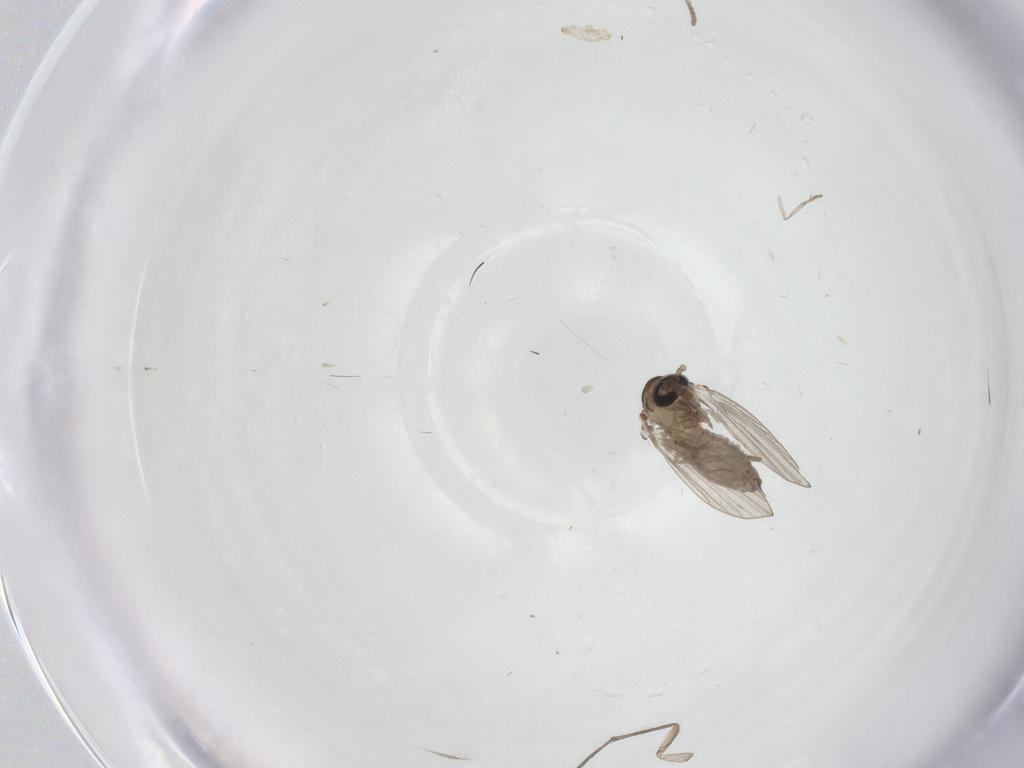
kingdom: Animalia
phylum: Arthropoda
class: Insecta
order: Diptera
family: Psychodidae
